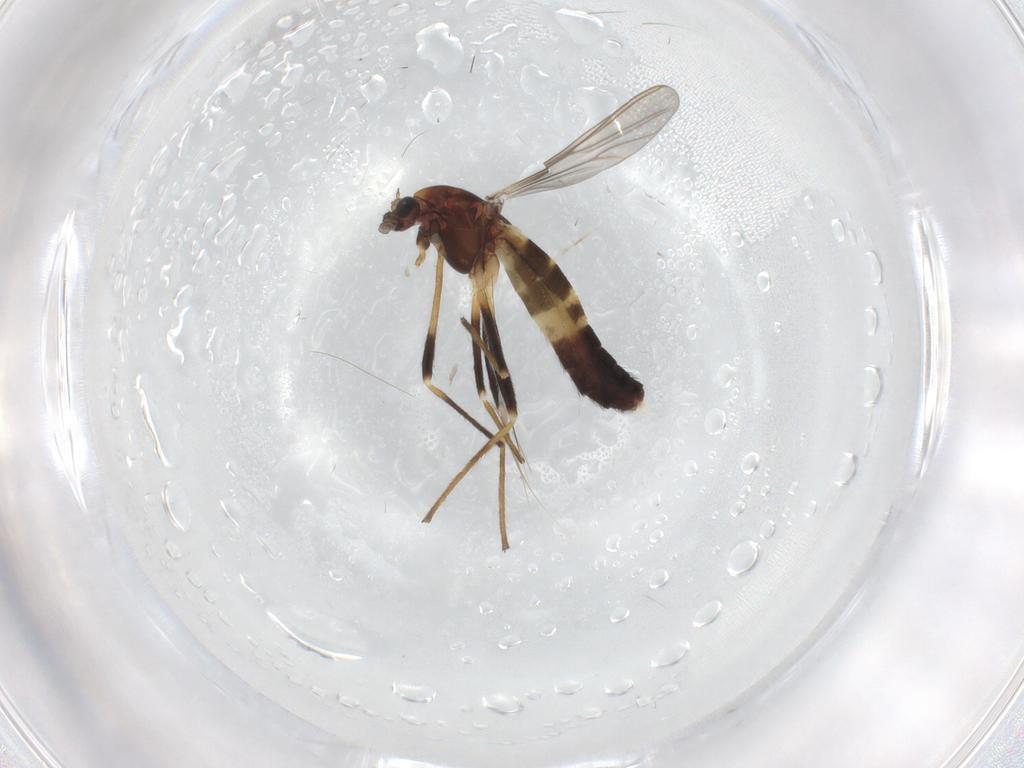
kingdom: Animalia
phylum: Arthropoda
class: Insecta
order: Diptera
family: Chironomidae
